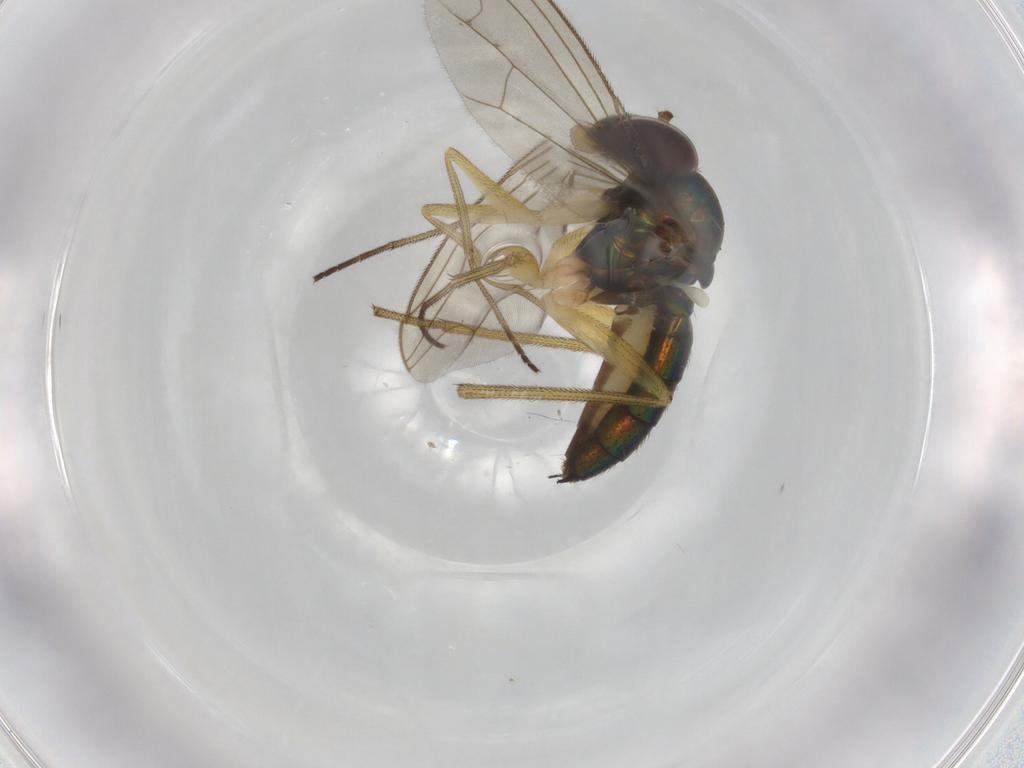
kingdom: Animalia
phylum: Arthropoda
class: Insecta
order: Diptera
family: Dolichopodidae
